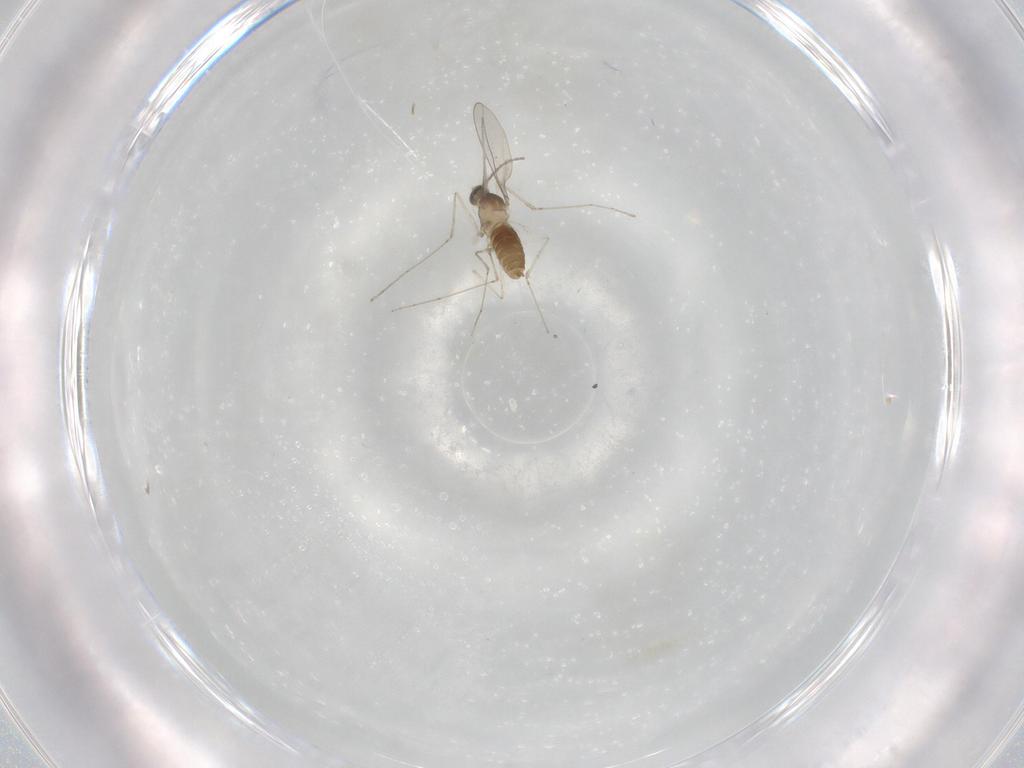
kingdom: Animalia
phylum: Arthropoda
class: Insecta
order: Diptera
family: Cecidomyiidae
